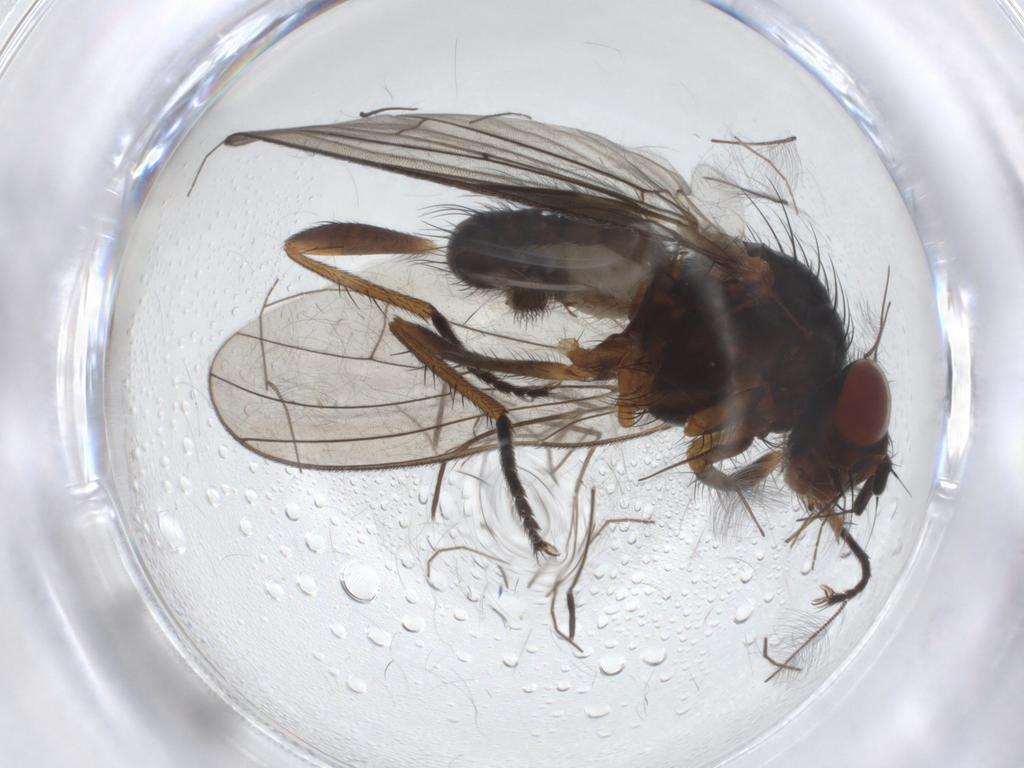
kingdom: Animalia
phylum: Arthropoda
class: Insecta
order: Diptera
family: Anthomyiidae
